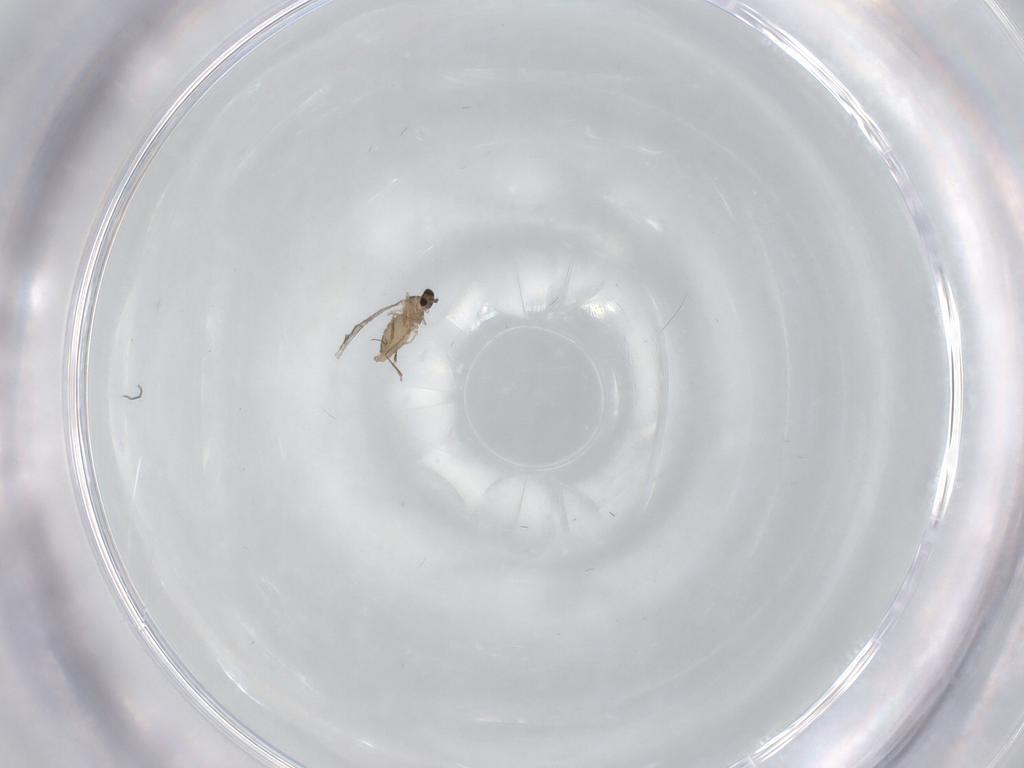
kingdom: Animalia
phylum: Arthropoda
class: Insecta
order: Diptera
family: Cecidomyiidae
